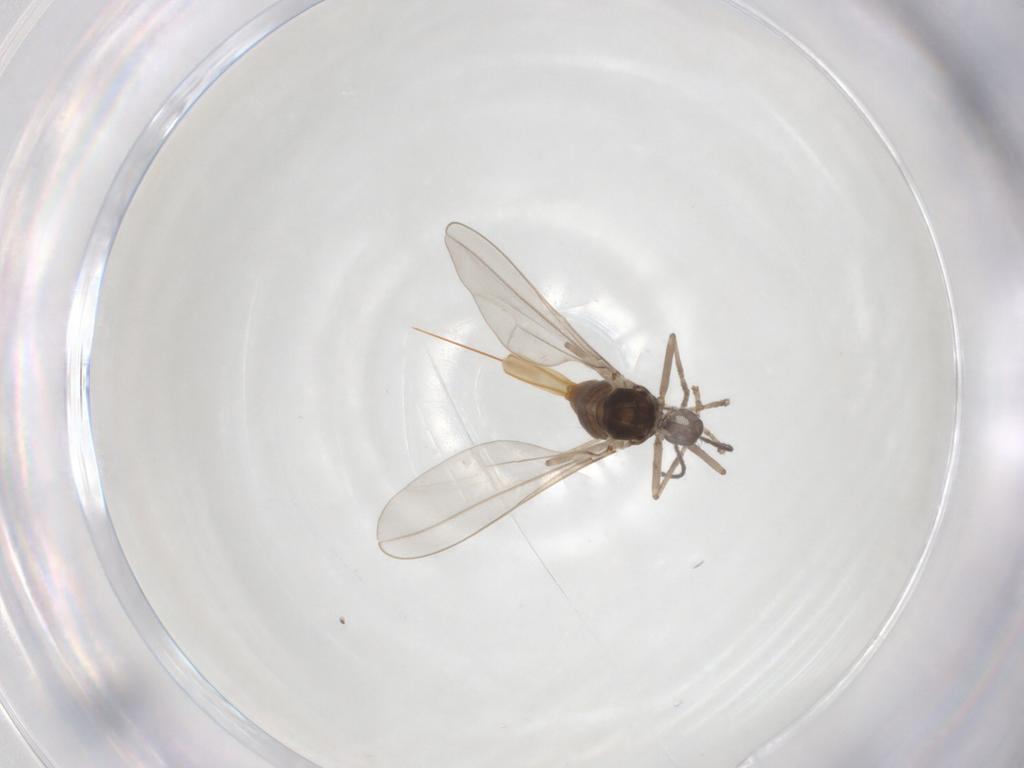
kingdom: Animalia
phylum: Arthropoda
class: Insecta
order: Diptera
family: Cecidomyiidae
